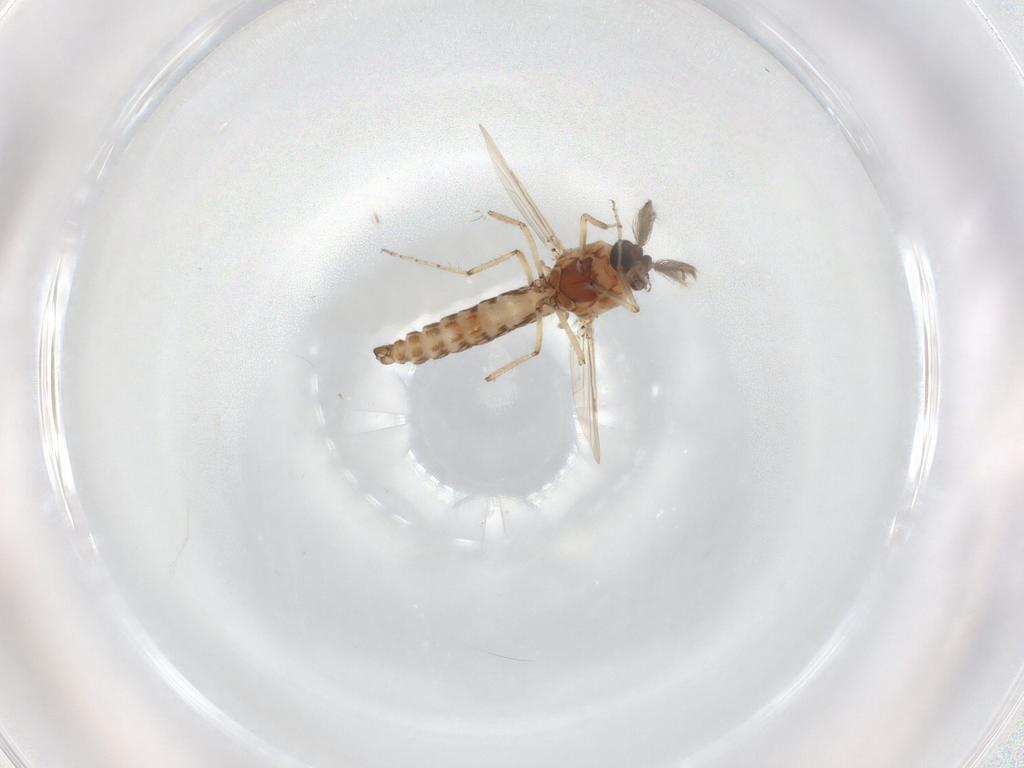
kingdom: Animalia
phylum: Arthropoda
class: Insecta
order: Diptera
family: Ceratopogonidae
